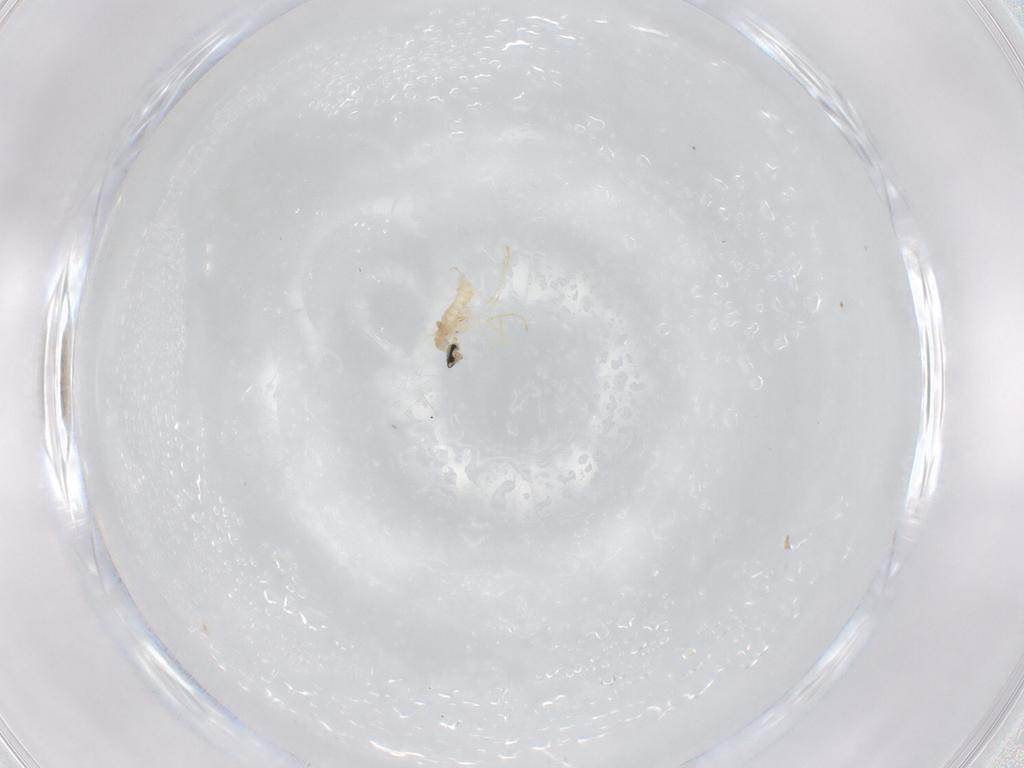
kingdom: Animalia
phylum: Arthropoda
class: Insecta
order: Diptera
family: Cecidomyiidae
